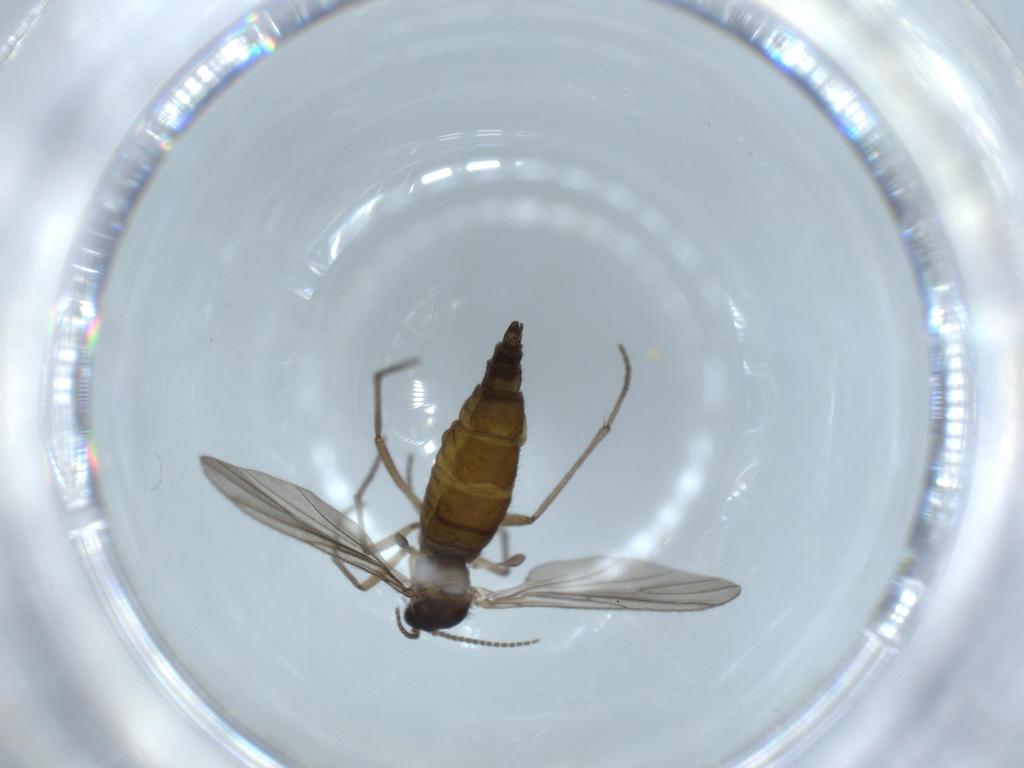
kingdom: Animalia
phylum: Arthropoda
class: Insecta
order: Diptera
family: Sciaridae
